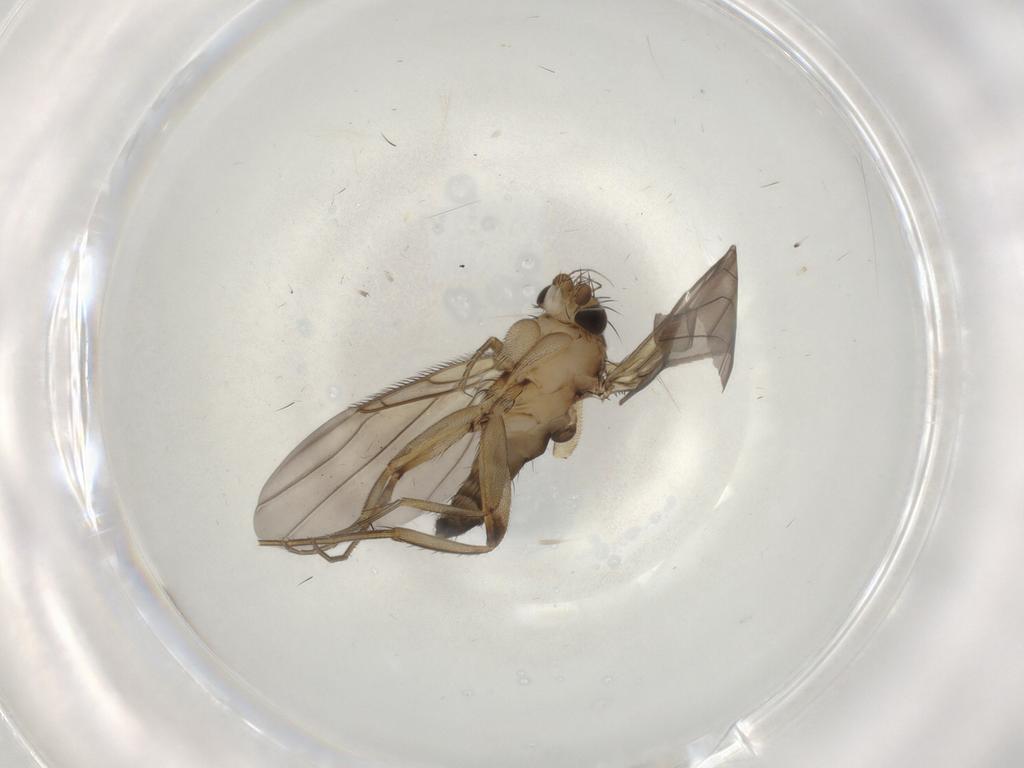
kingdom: Animalia
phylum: Arthropoda
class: Insecta
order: Diptera
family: Phoridae
